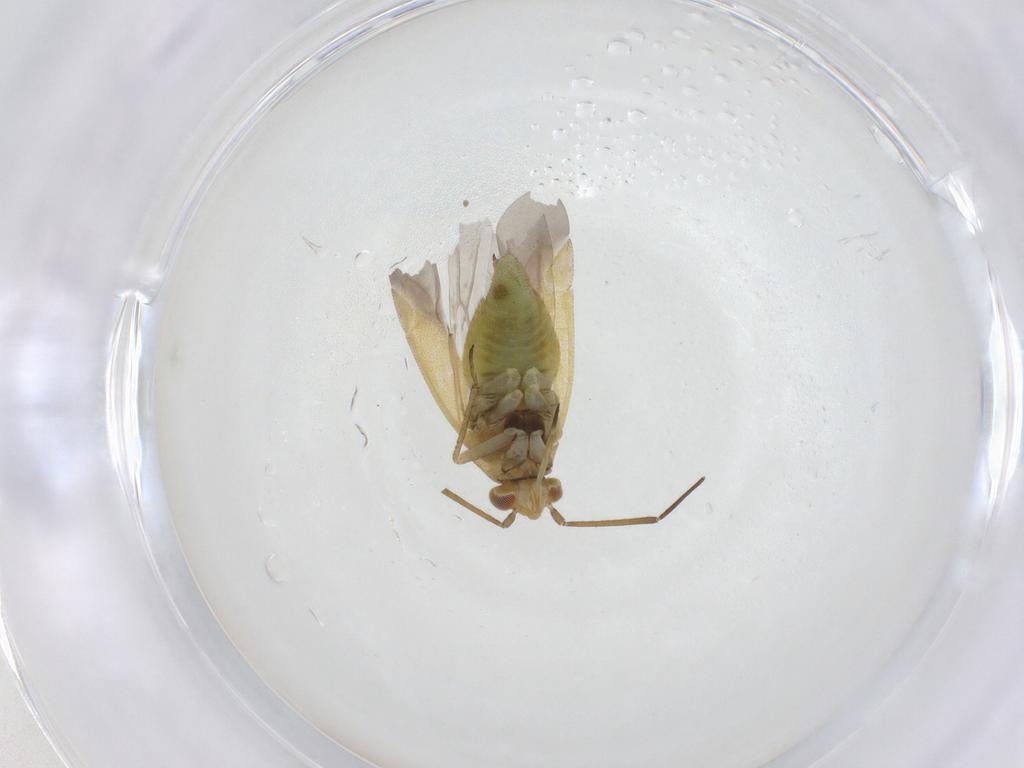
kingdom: Animalia
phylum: Arthropoda
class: Insecta
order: Hemiptera
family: Miridae
